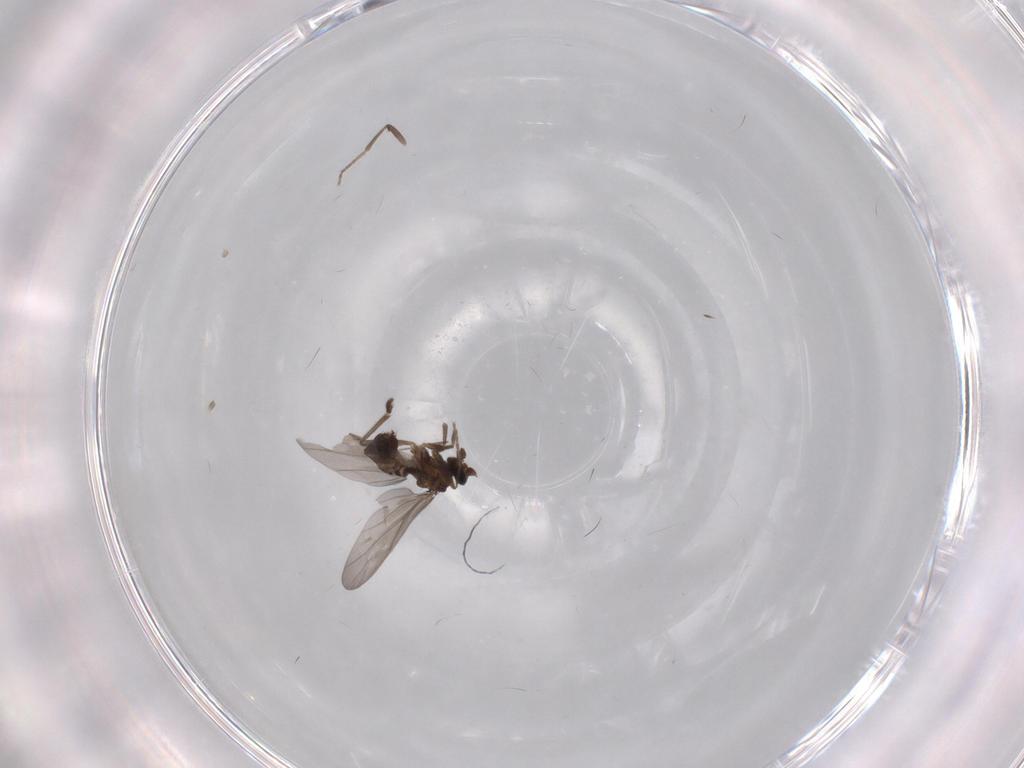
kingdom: Animalia
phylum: Arthropoda
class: Insecta
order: Diptera
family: Phoridae
